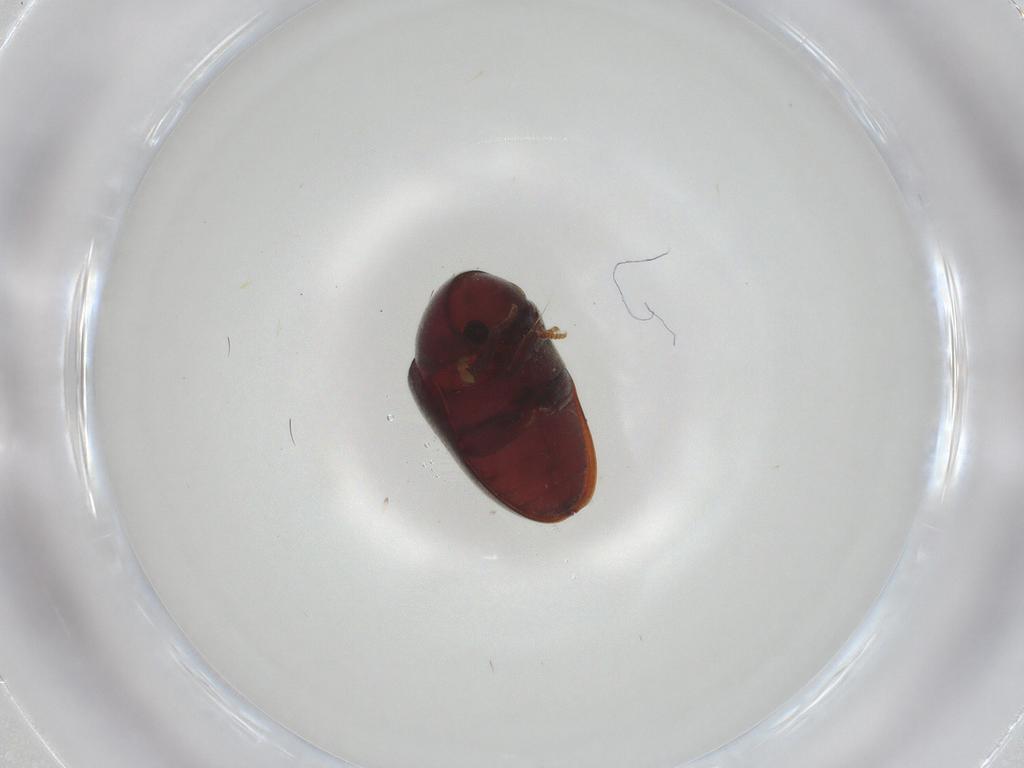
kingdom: Animalia
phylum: Arthropoda
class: Insecta
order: Coleoptera
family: Anobiidae
